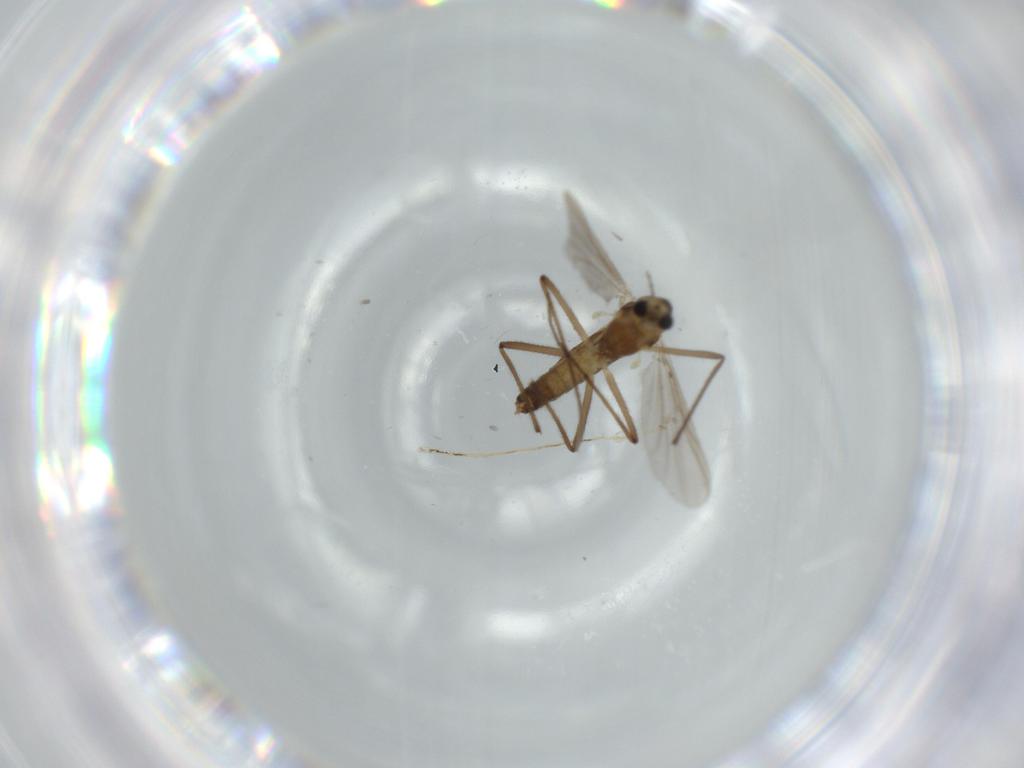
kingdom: Animalia
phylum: Arthropoda
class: Insecta
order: Diptera
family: Chironomidae
